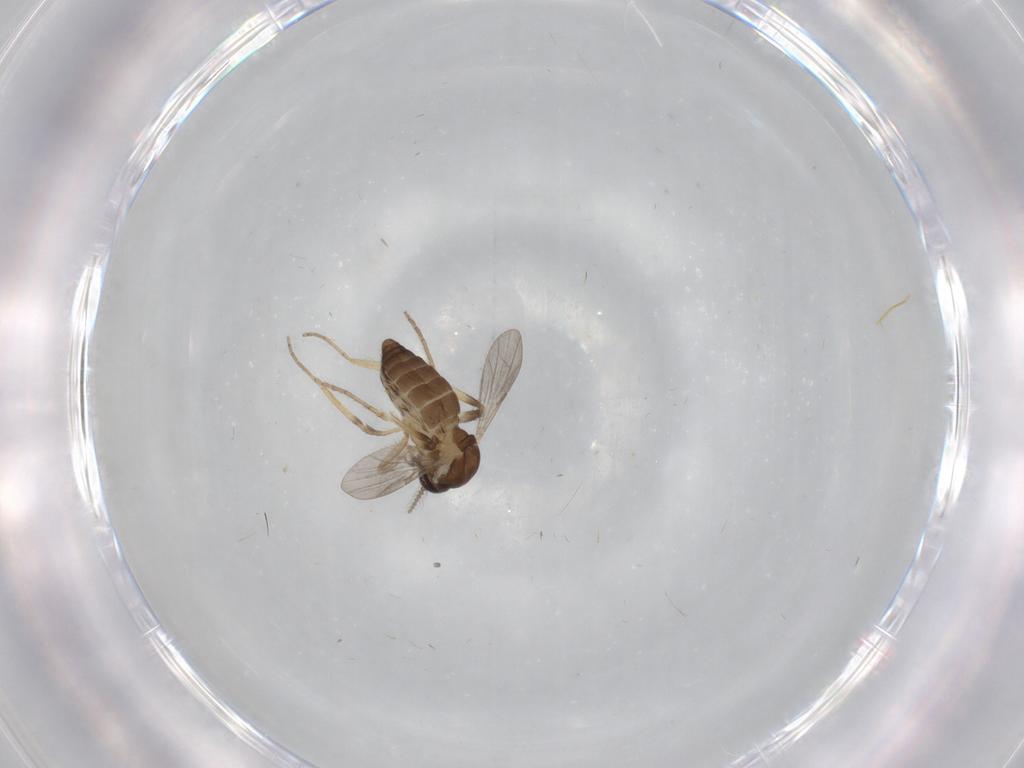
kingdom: Animalia
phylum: Arthropoda
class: Insecta
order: Diptera
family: Ceratopogonidae
